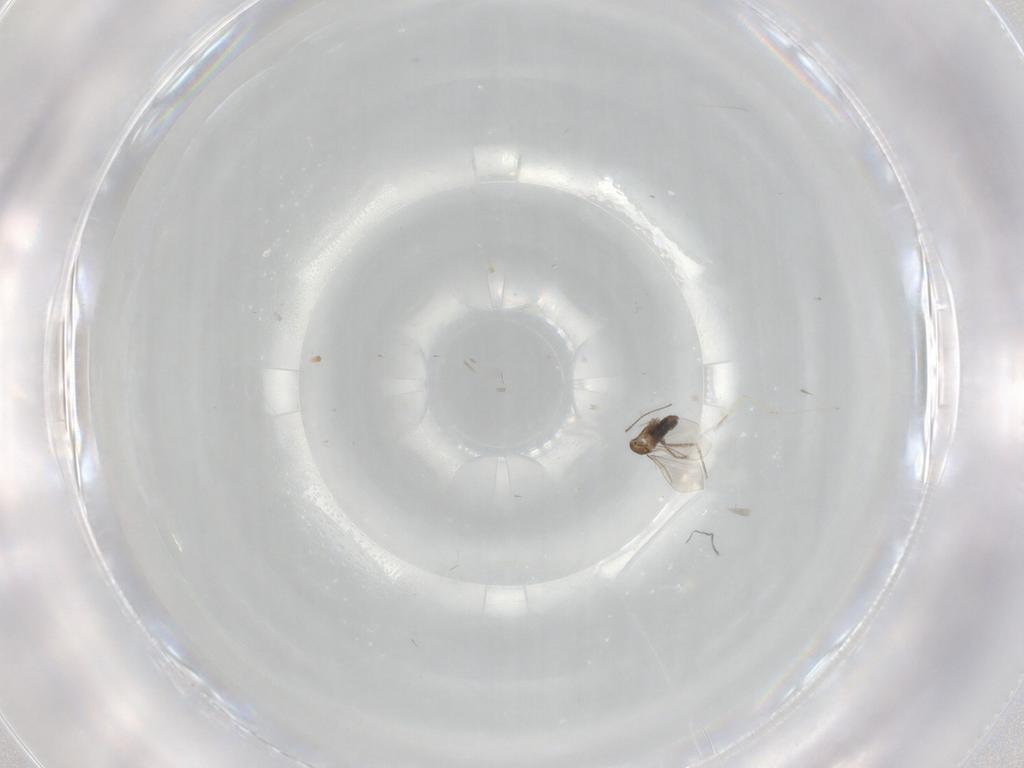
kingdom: Animalia
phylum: Arthropoda
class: Insecta
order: Diptera
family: Cecidomyiidae
